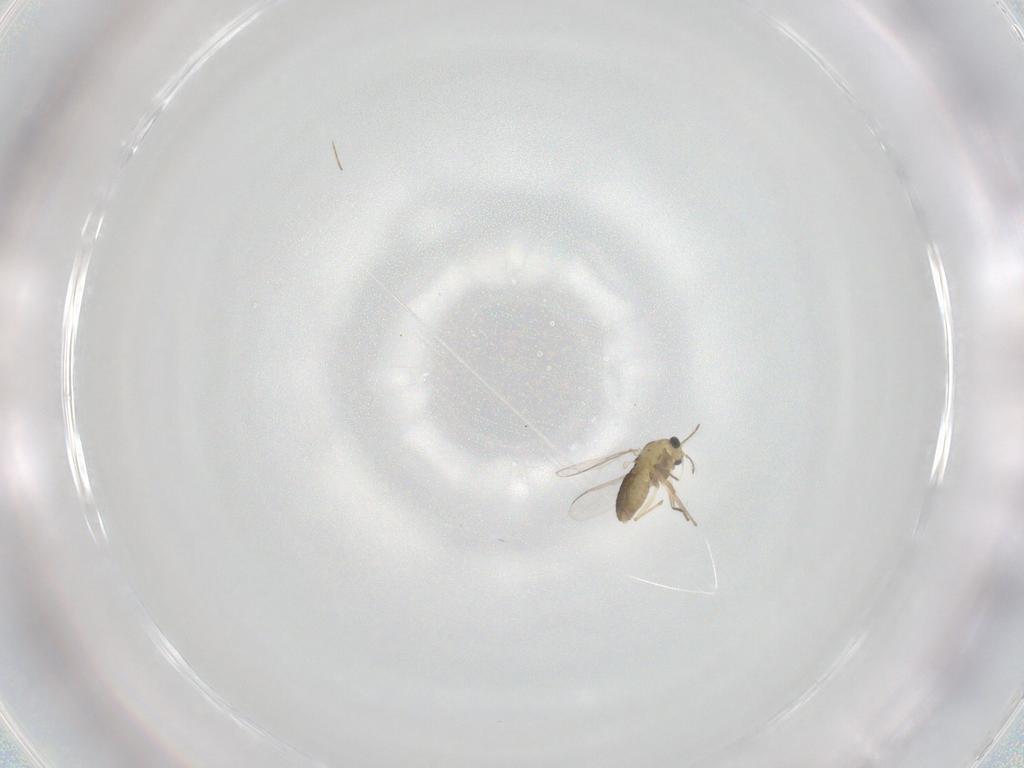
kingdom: Animalia
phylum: Arthropoda
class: Insecta
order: Diptera
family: Chironomidae
